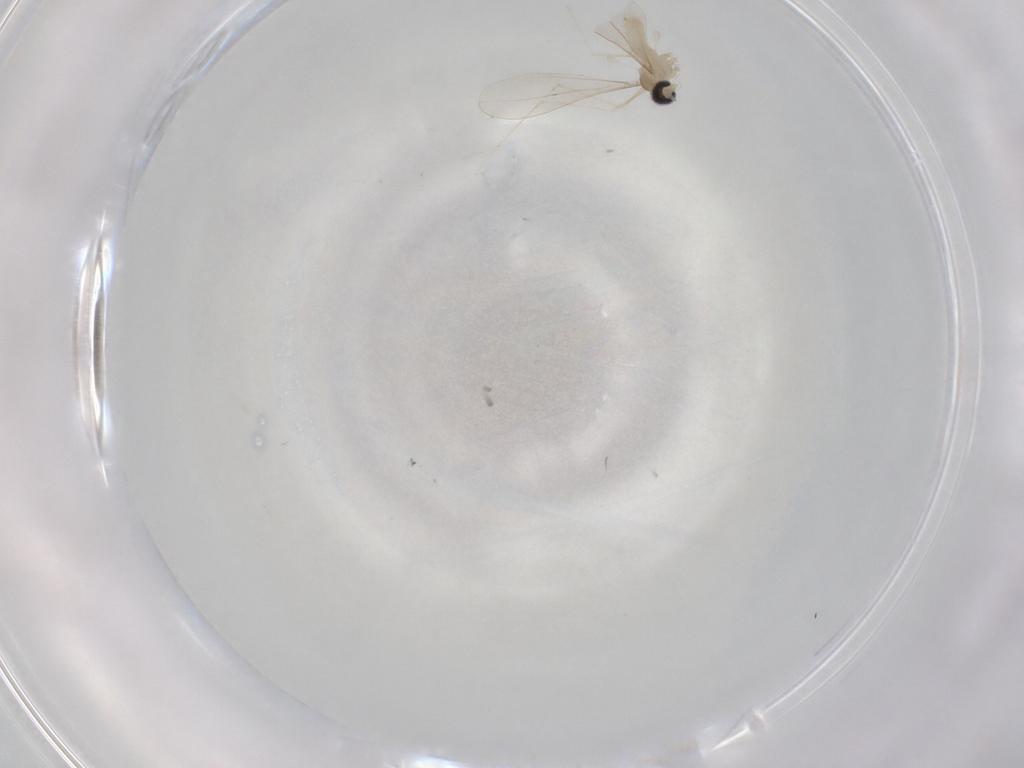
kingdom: Animalia
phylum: Arthropoda
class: Insecta
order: Diptera
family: Cecidomyiidae
